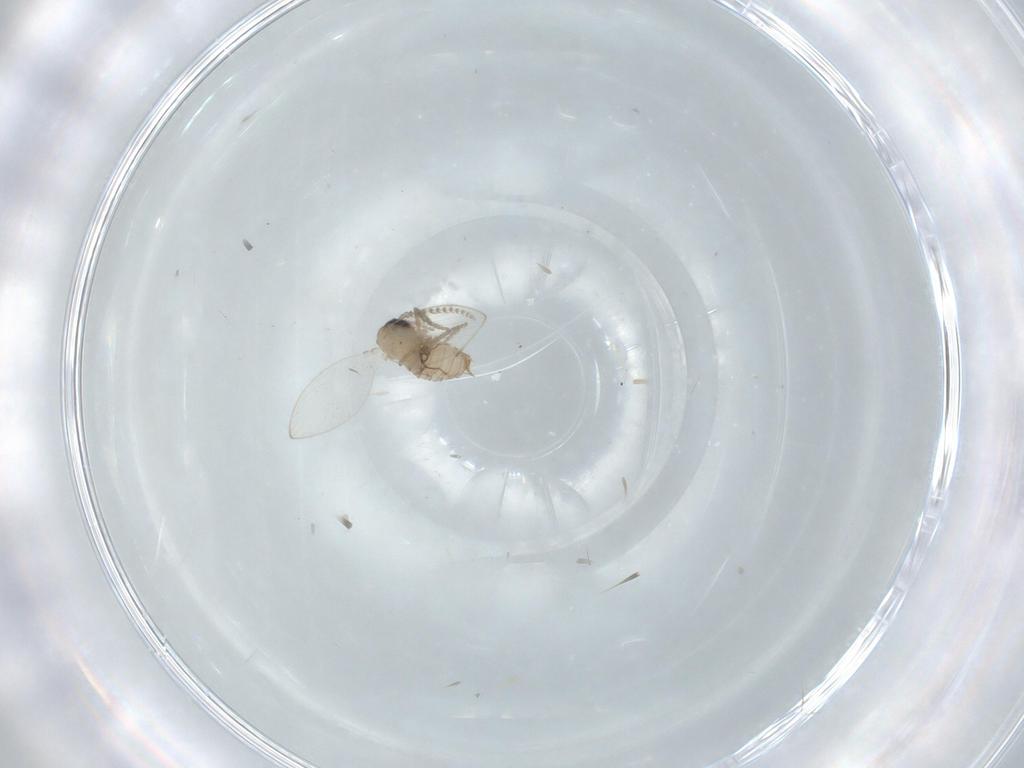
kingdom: Animalia
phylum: Arthropoda
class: Insecta
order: Diptera
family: Psychodidae
